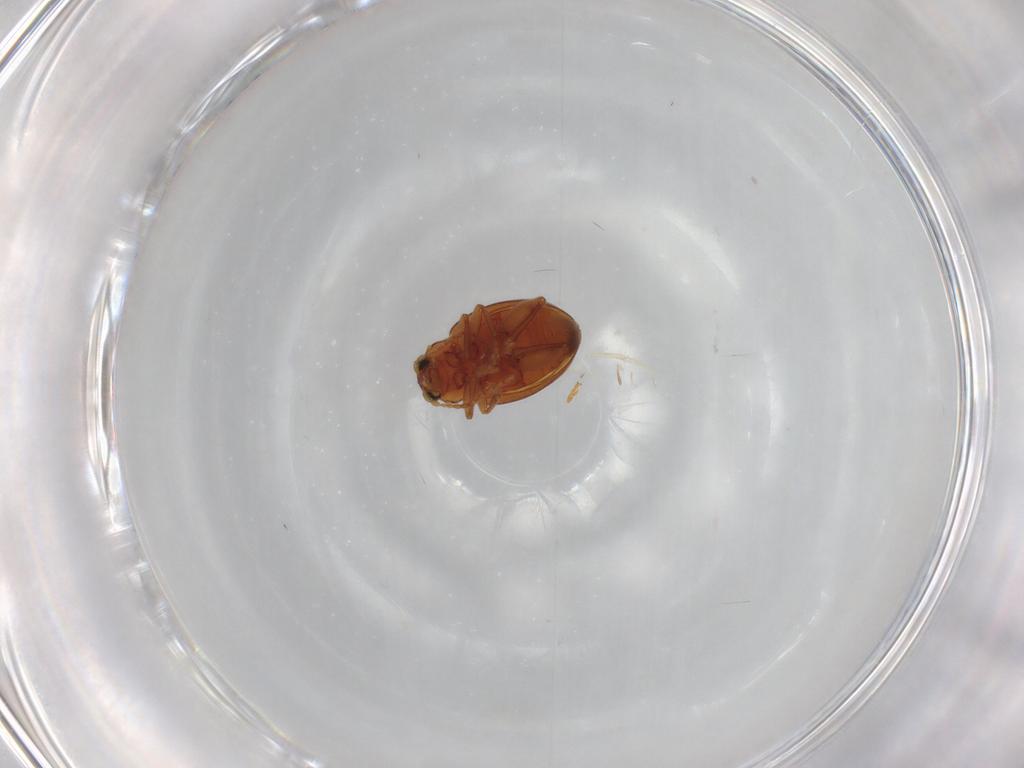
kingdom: Animalia
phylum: Arthropoda
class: Insecta
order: Coleoptera
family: Chrysomelidae
